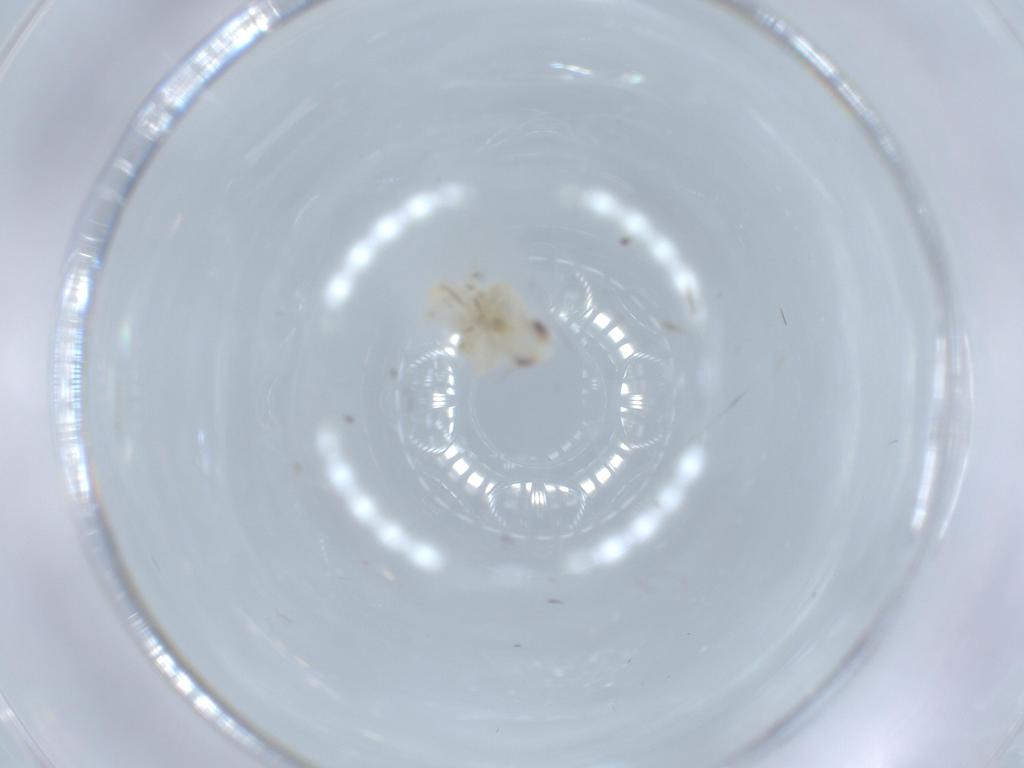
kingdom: Animalia
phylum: Arthropoda
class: Insecta
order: Hemiptera
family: Nogodinidae
